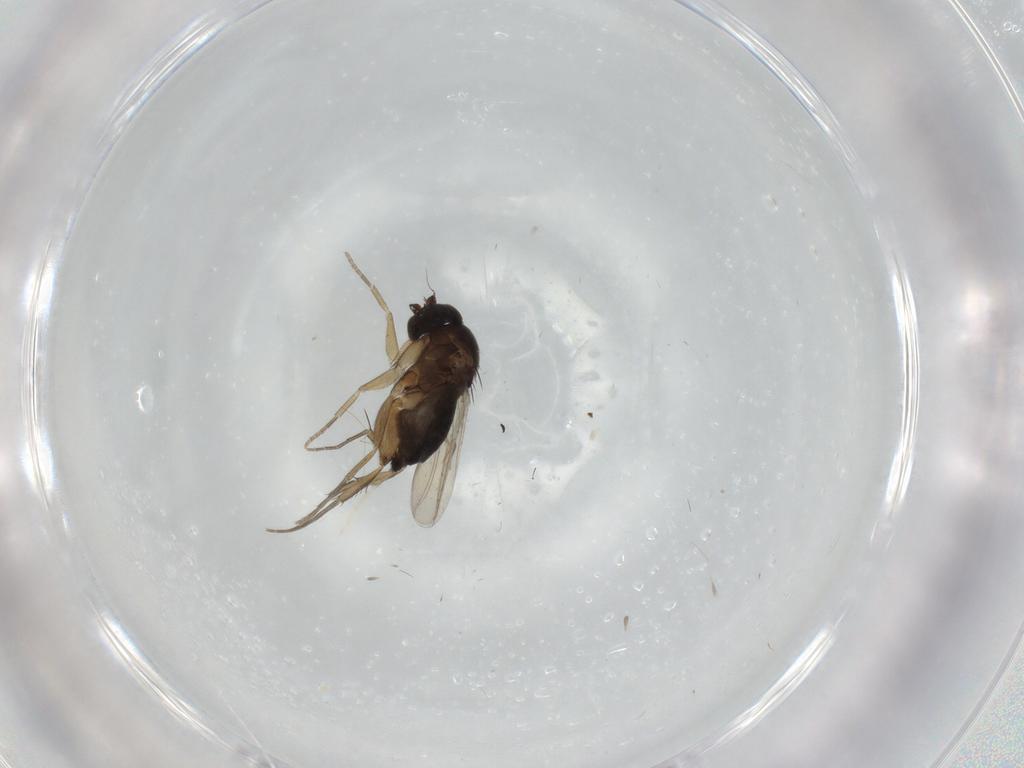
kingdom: Animalia
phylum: Arthropoda
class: Insecta
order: Diptera
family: Phoridae
